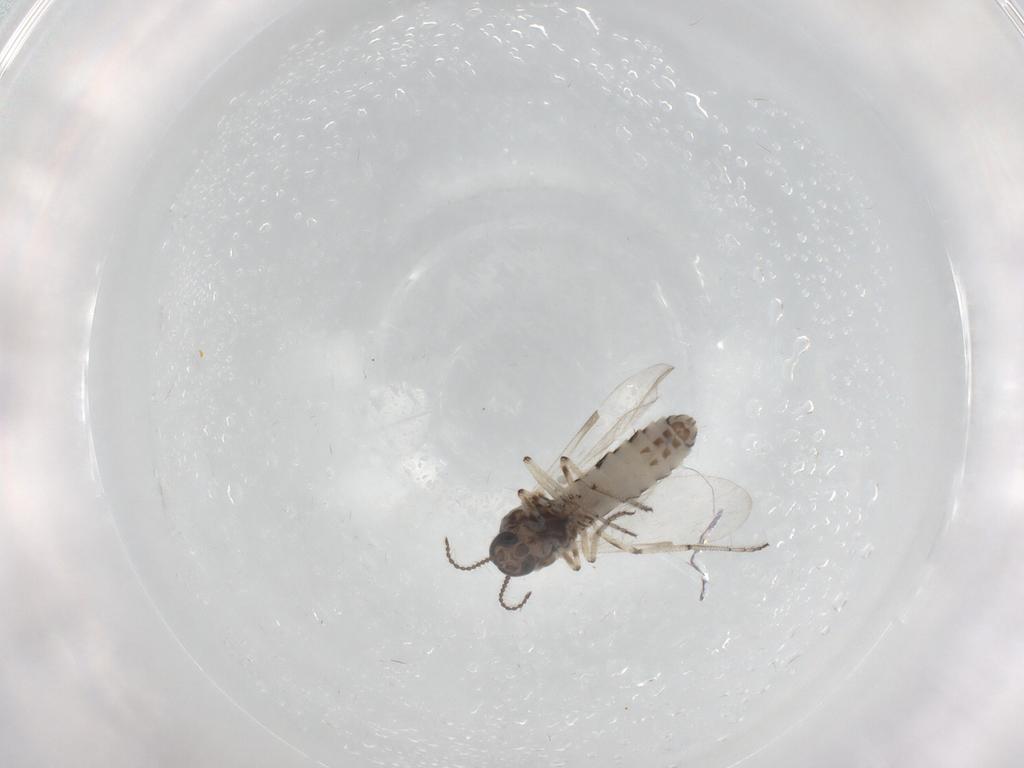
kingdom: Animalia
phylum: Arthropoda
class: Insecta
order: Diptera
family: Ceratopogonidae
